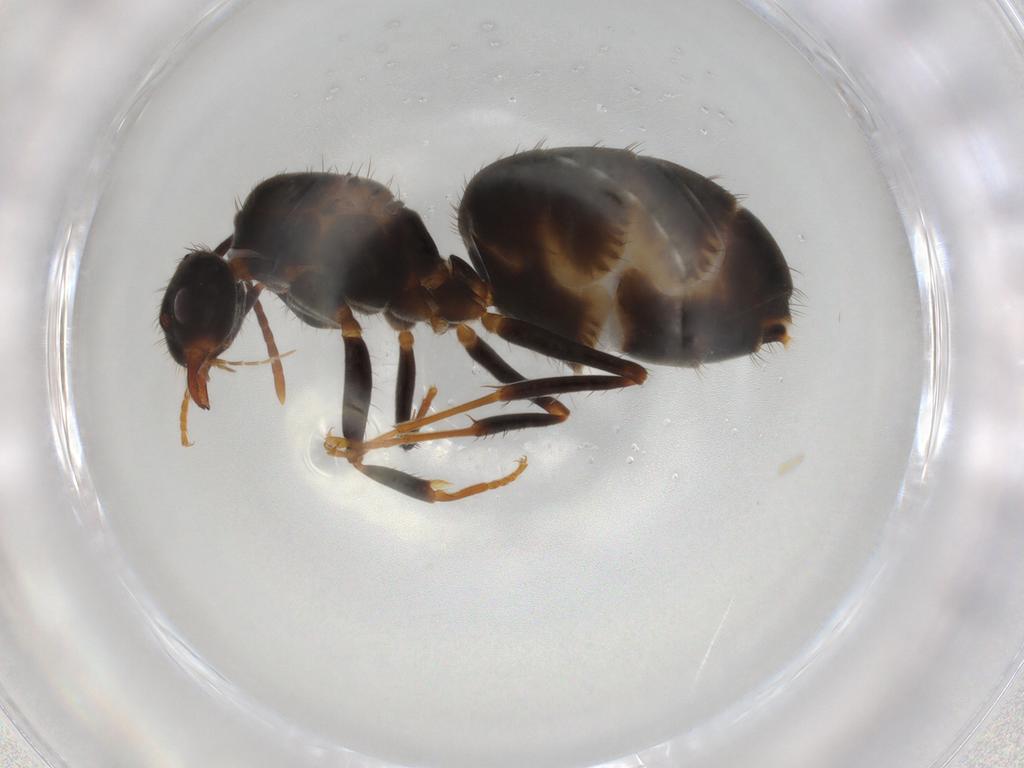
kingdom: Animalia
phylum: Arthropoda
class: Insecta
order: Hymenoptera
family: Formicidae
